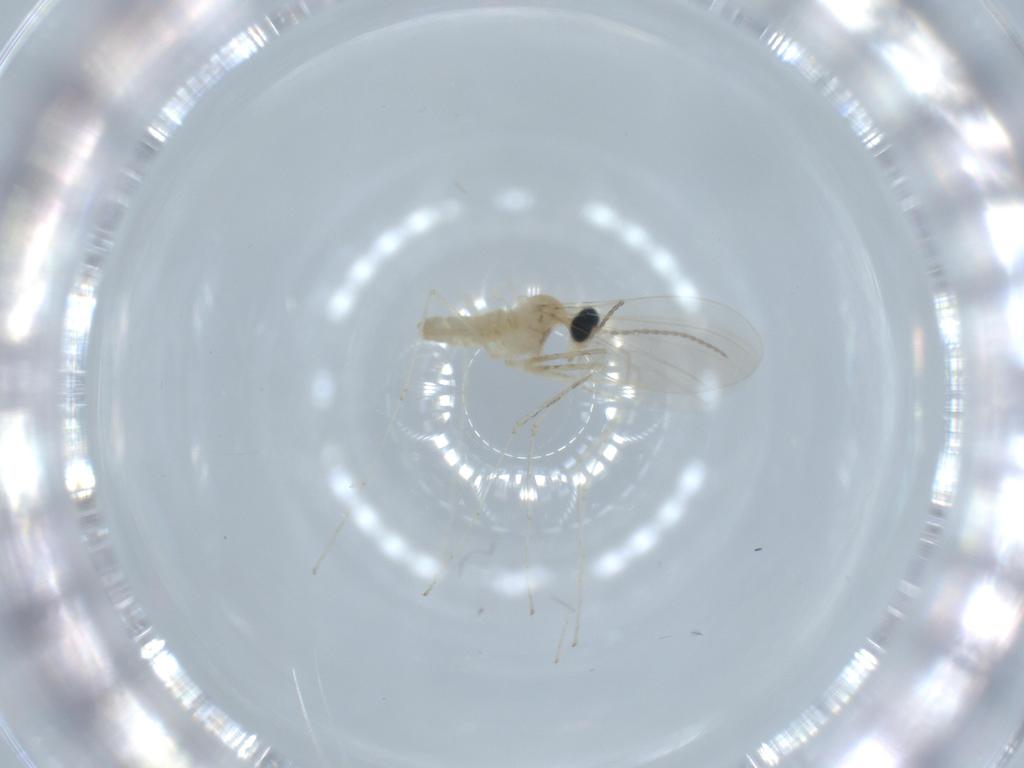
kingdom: Animalia
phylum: Arthropoda
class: Insecta
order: Diptera
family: Cecidomyiidae
